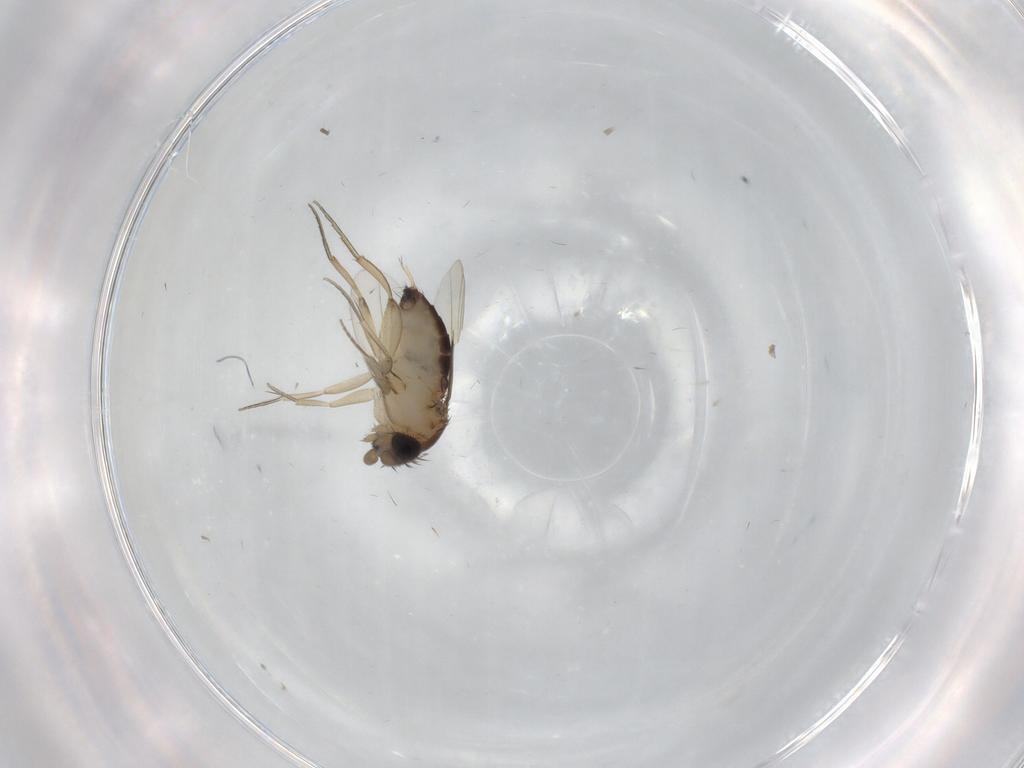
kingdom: Animalia
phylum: Arthropoda
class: Insecta
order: Diptera
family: Phoridae
